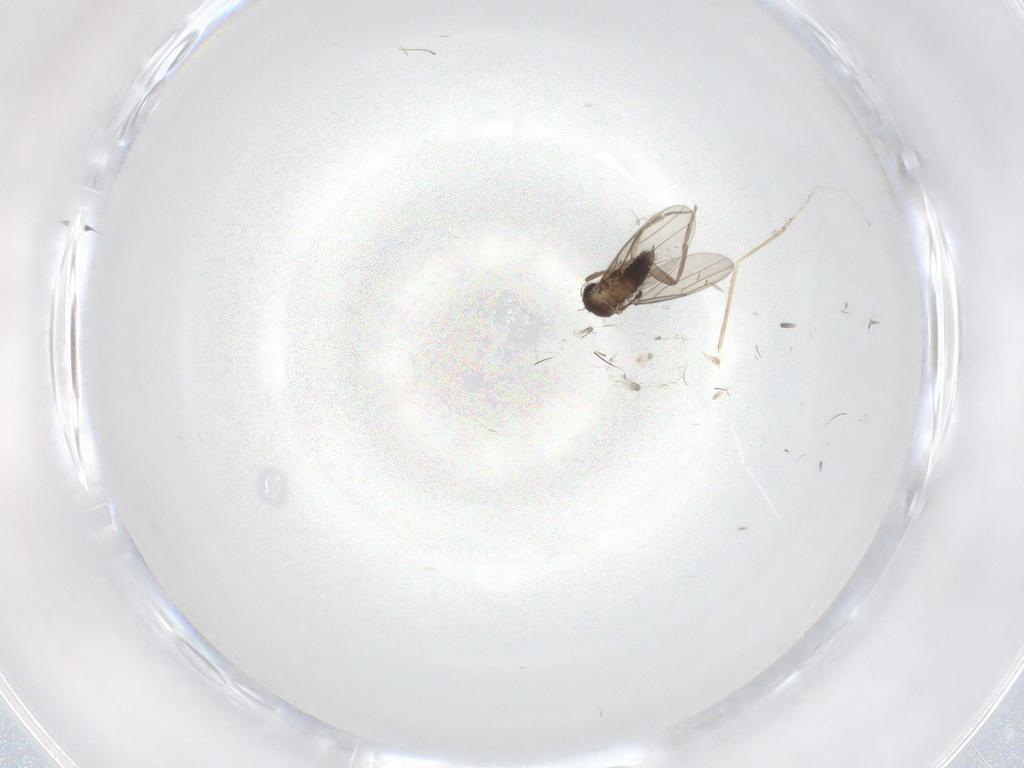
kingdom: Animalia
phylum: Arthropoda
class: Insecta
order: Diptera
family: Phoridae
